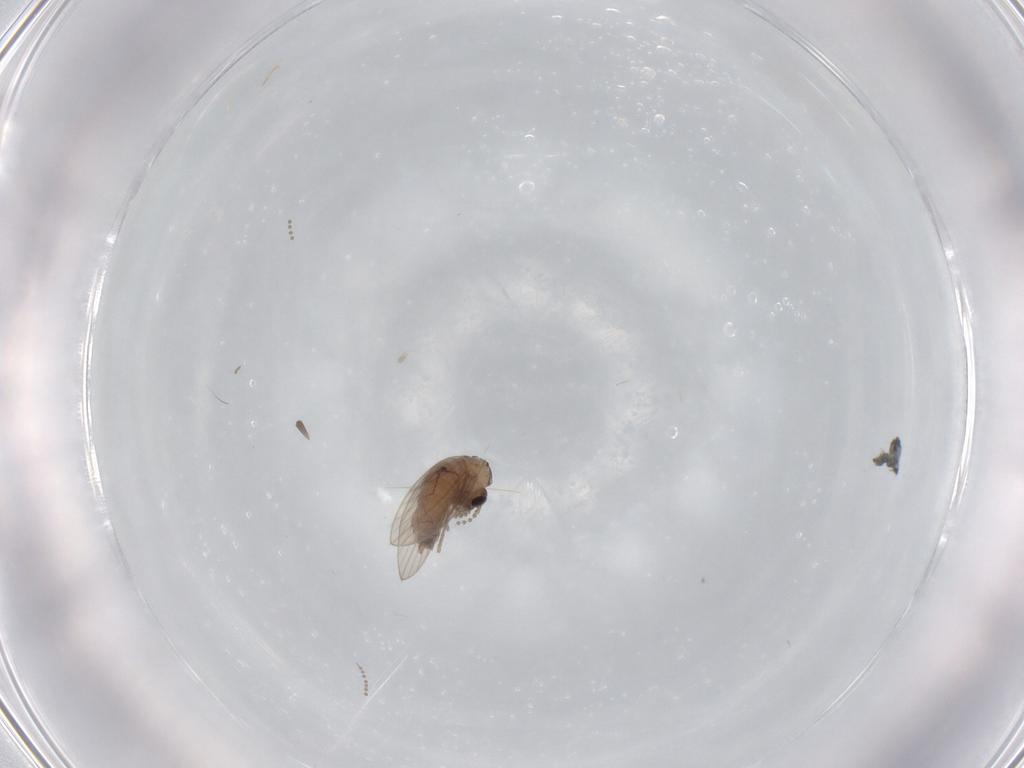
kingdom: Animalia
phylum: Arthropoda
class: Insecta
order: Diptera
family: Psychodidae
